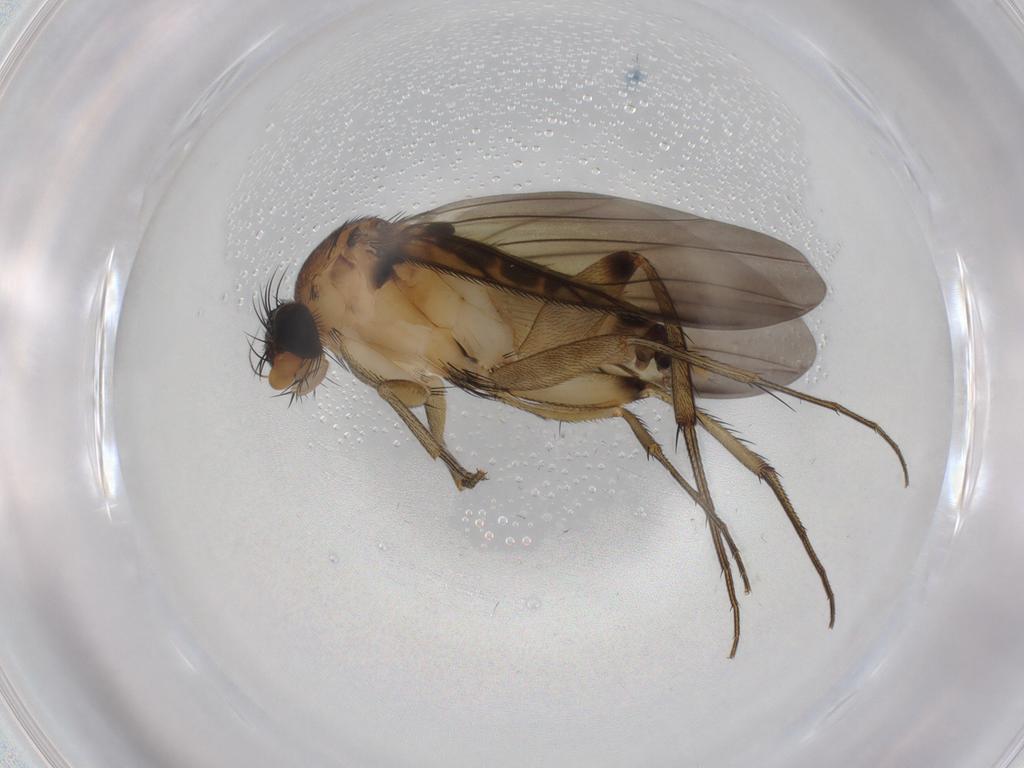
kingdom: Animalia
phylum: Arthropoda
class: Insecta
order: Diptera
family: Phoridae
